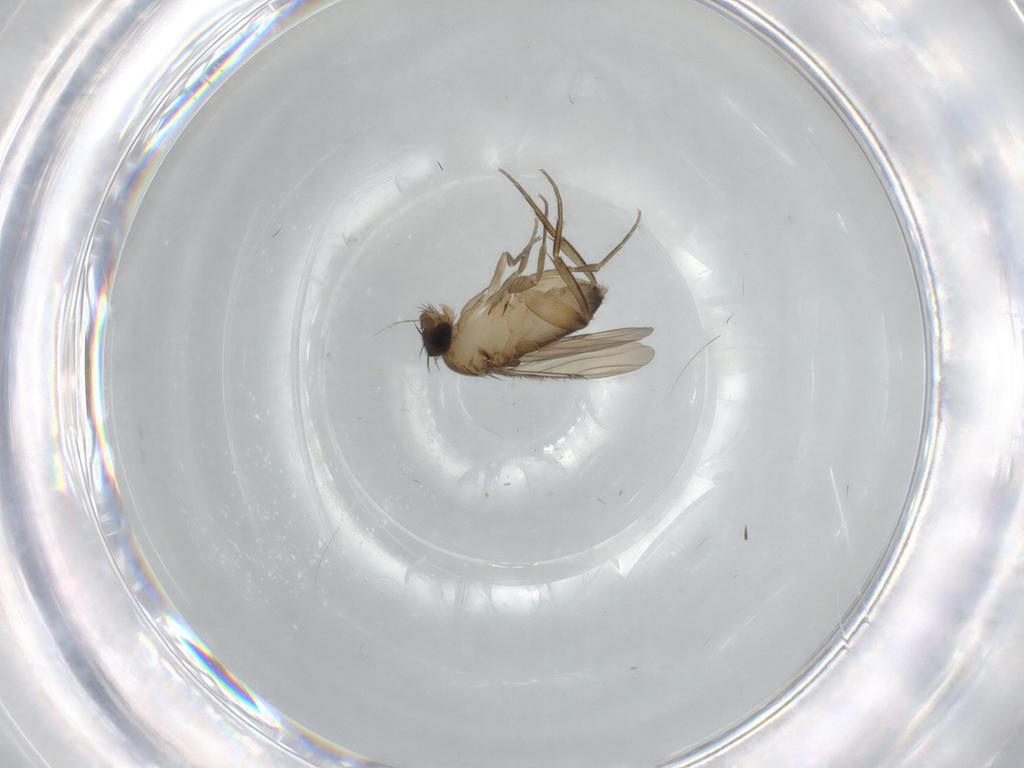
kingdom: Animalia
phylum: Arthropoda
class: Insecta
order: Diptera
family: Phoridae
